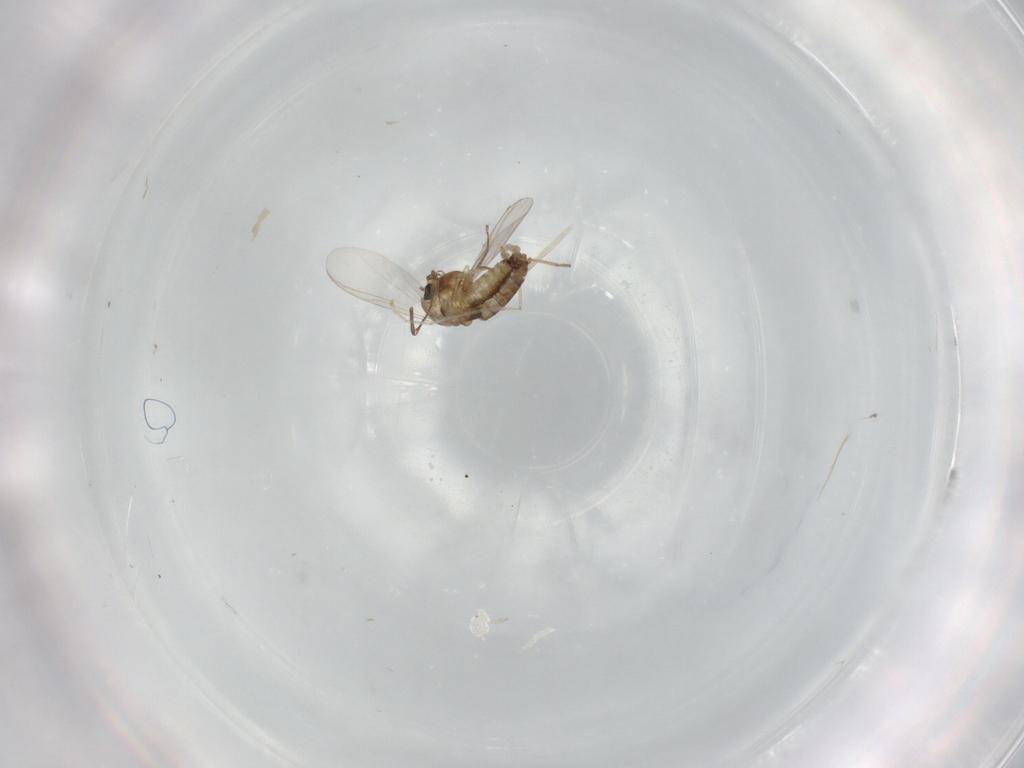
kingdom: Animalia
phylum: Arthropoda
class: Insecta
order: Diptera
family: Cecidomyiidae
